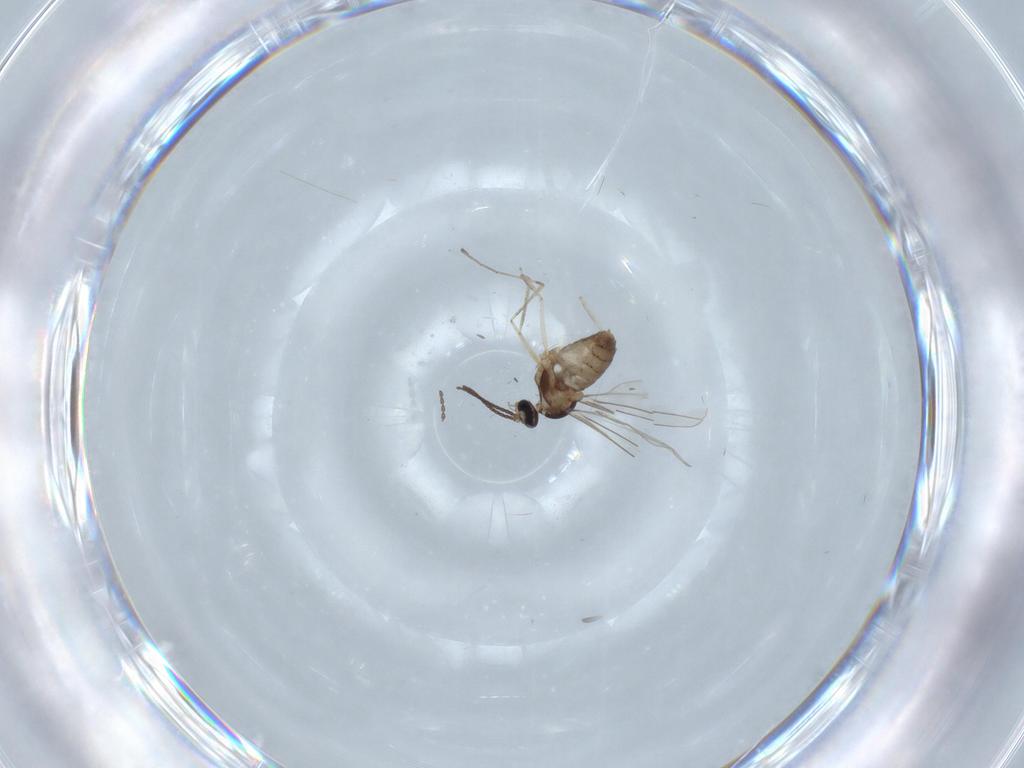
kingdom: Animalia
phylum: Arthropoda
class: Insecta
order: Diptera
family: Cecidomyiidae
